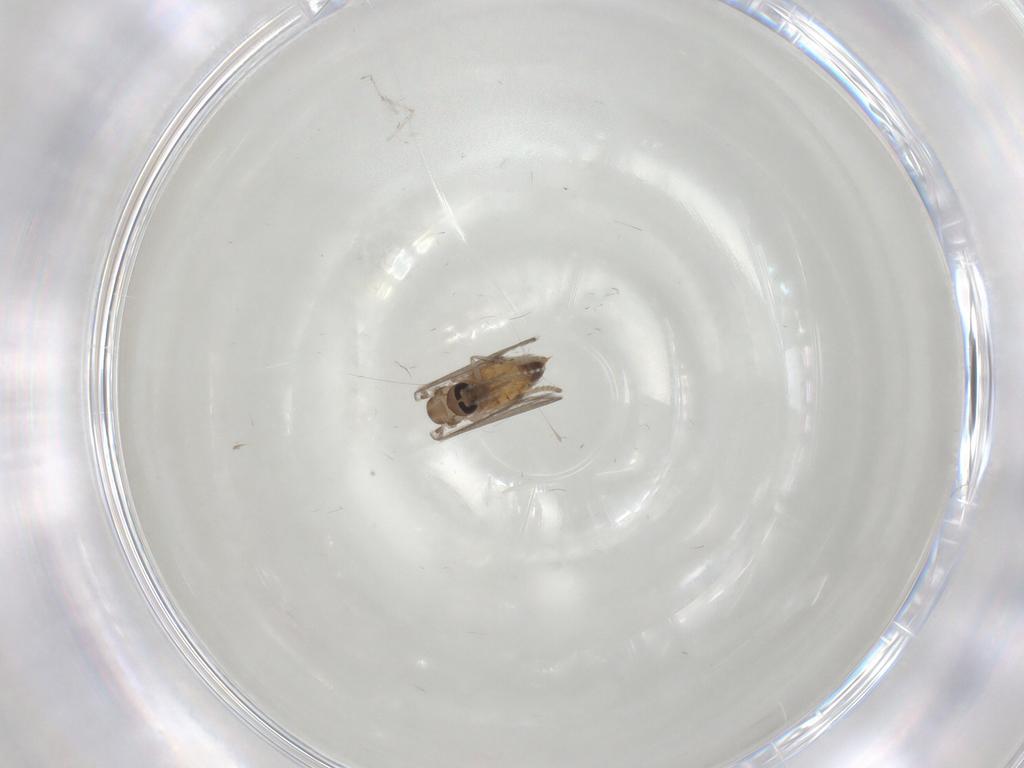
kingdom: Animalia
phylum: Arthropoda
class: Insecta
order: Diptera
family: Psychodidae
